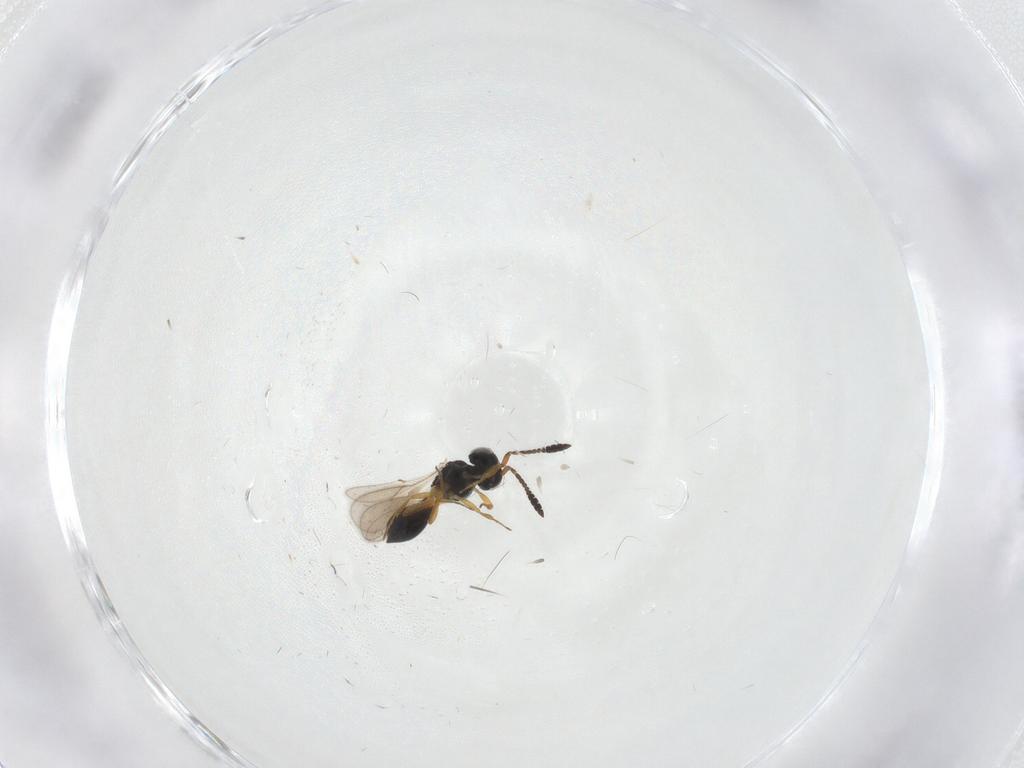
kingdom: Animalia
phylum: Arthropoda
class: Insecta
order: Hymenoptera
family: Scelionidae
